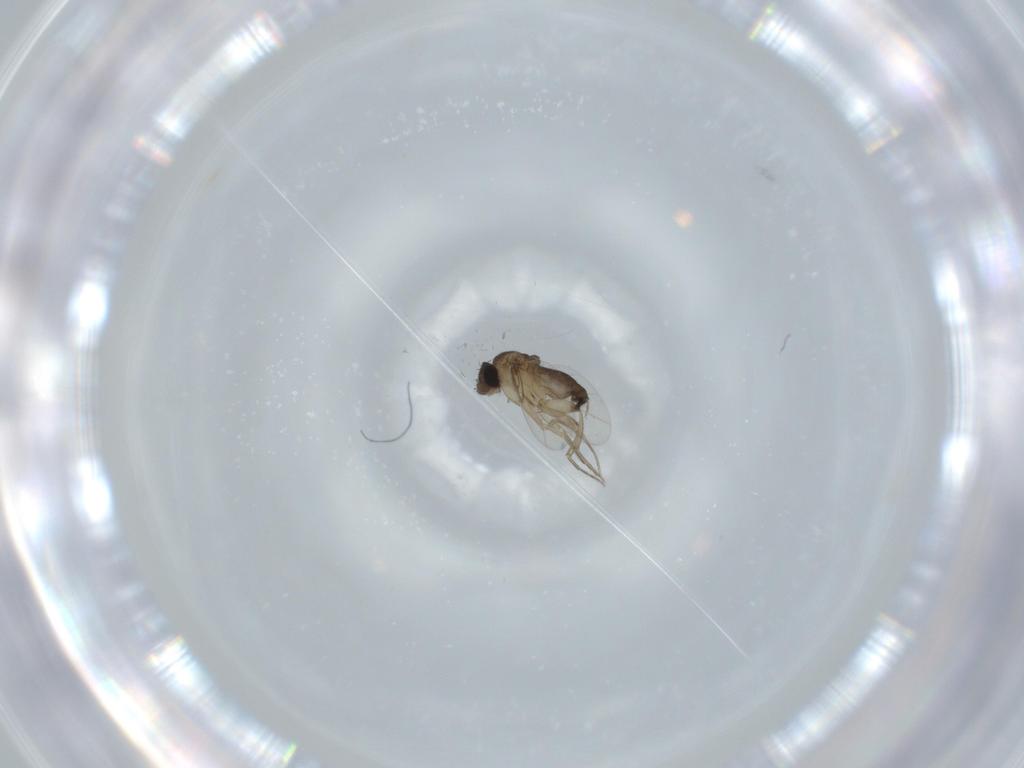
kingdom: Animalia
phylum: Arthropoda
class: Insecta
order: Diptera
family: Phoridae
